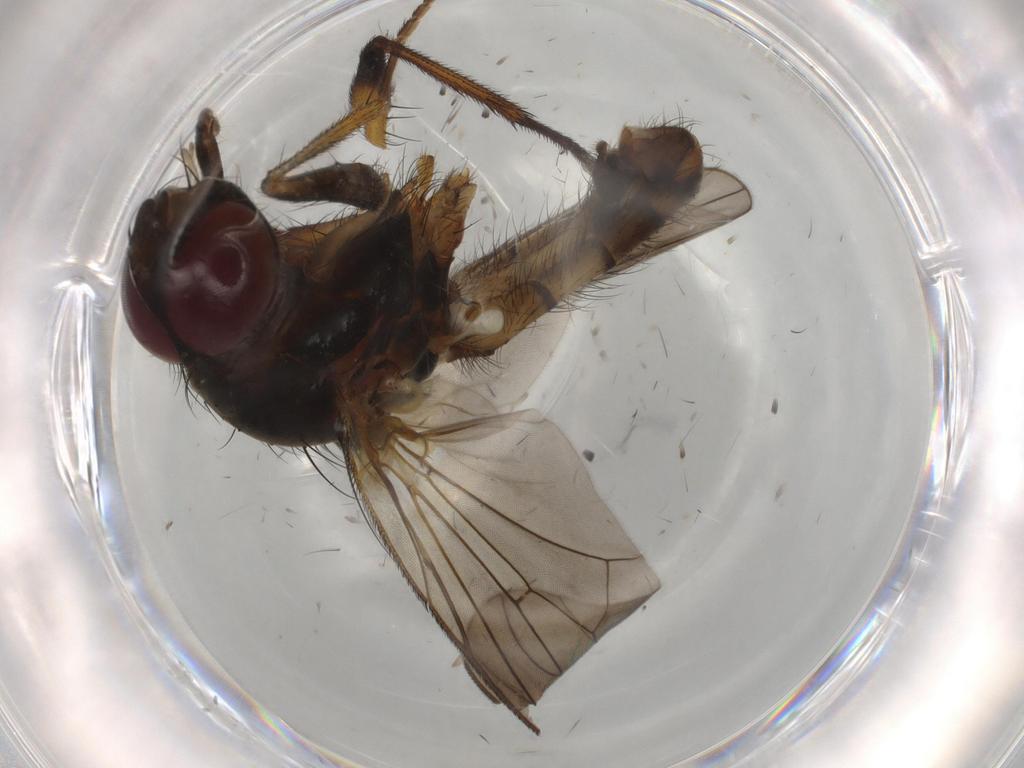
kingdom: Animalia
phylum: Arthropoda
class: Insecta
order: Diptera
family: Anthomyiidae
